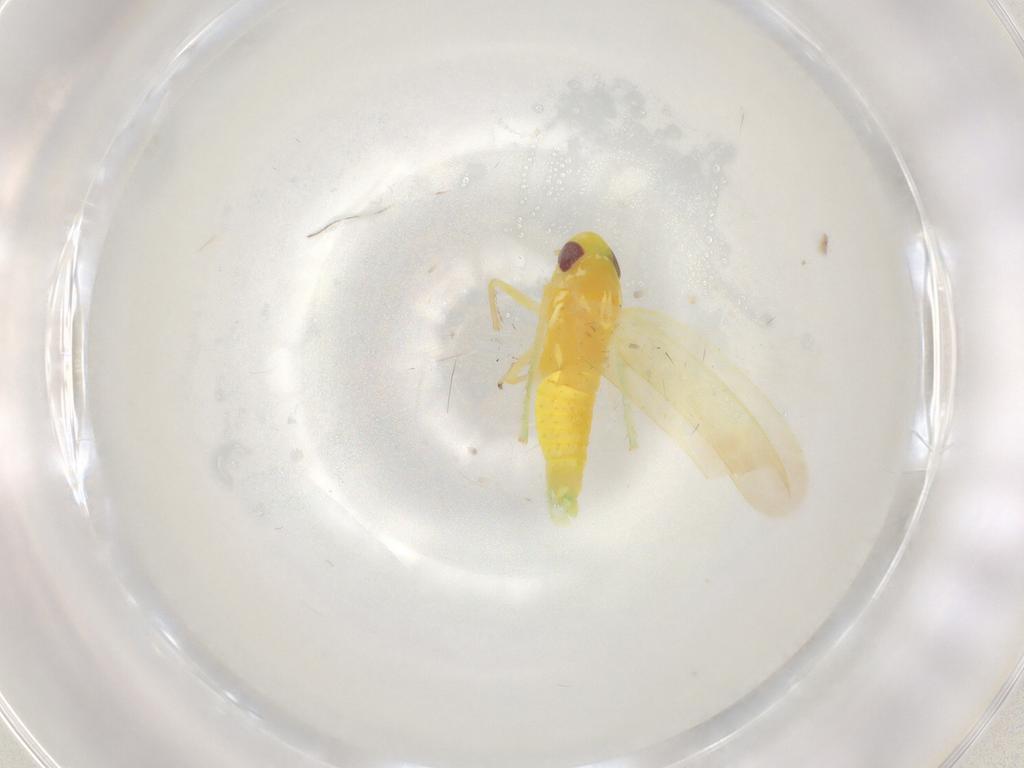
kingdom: Animalia
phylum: Arthropoda
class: Insecta
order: Hemiptera
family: Cicadellidae
